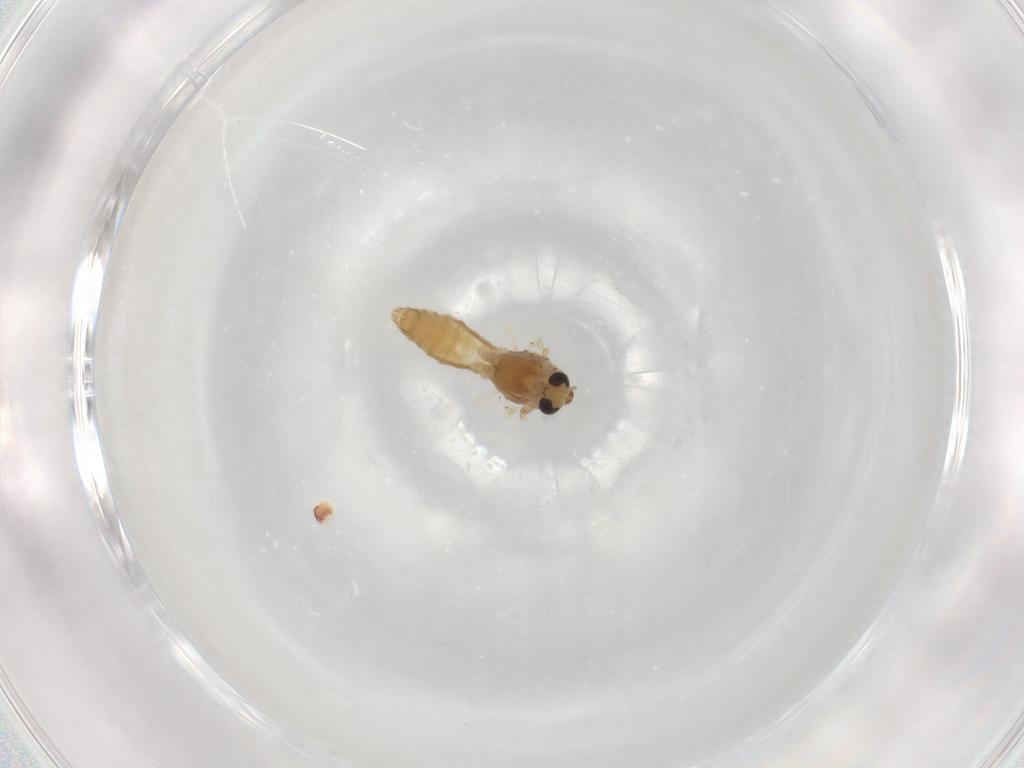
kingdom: Animalia
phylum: Arthropoda
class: Insecta
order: Diptera
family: Chironomidae
